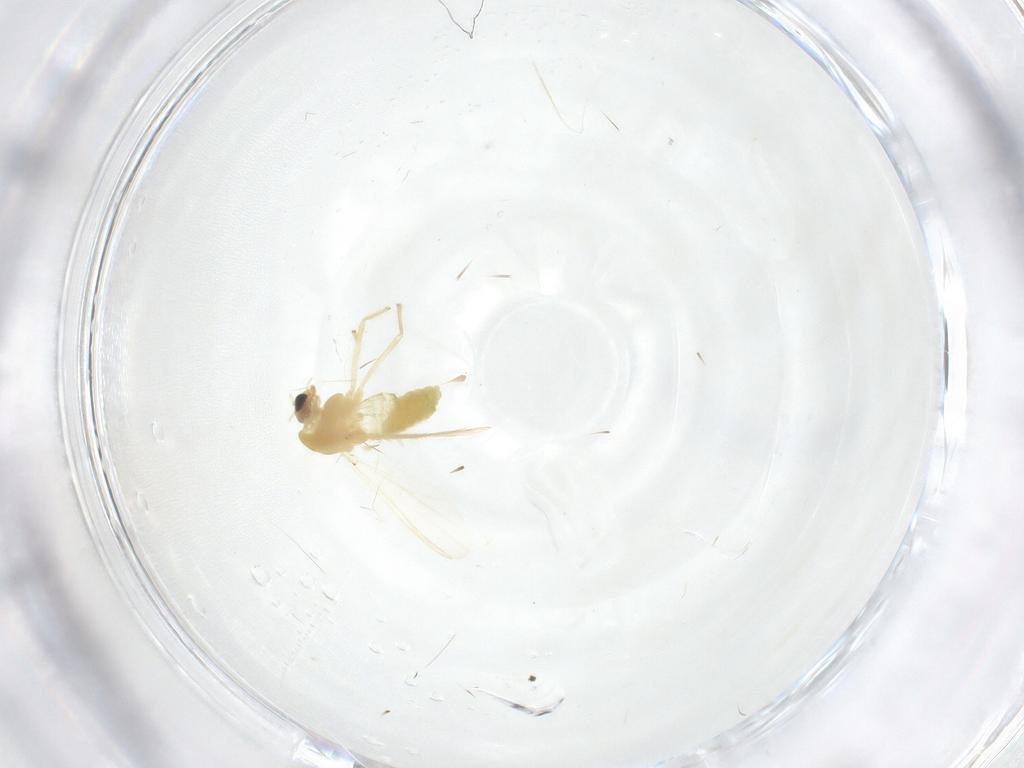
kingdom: Animalia
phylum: Arthropoda
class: Insecta
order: Diptera
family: Chironomidae
